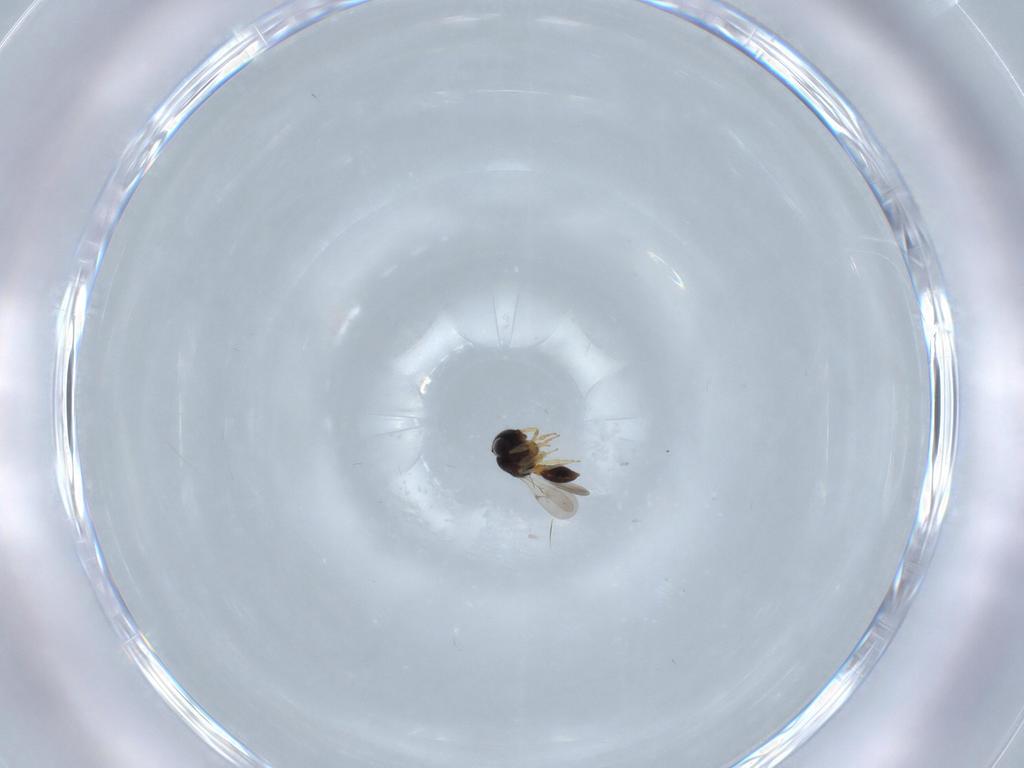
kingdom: Animalia
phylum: Arthropoda
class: Insecta
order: Hymenoptera
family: Scelionidae
